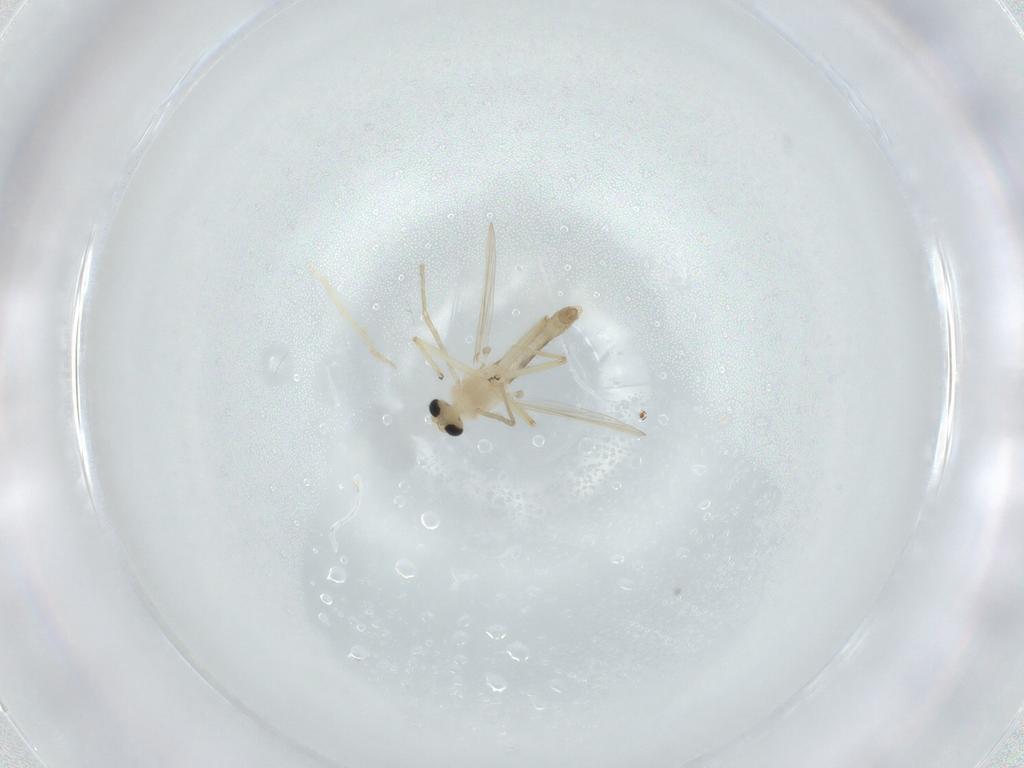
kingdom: Animalia
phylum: Arthropoda
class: Insecta
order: Diptera
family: Chironomidae
